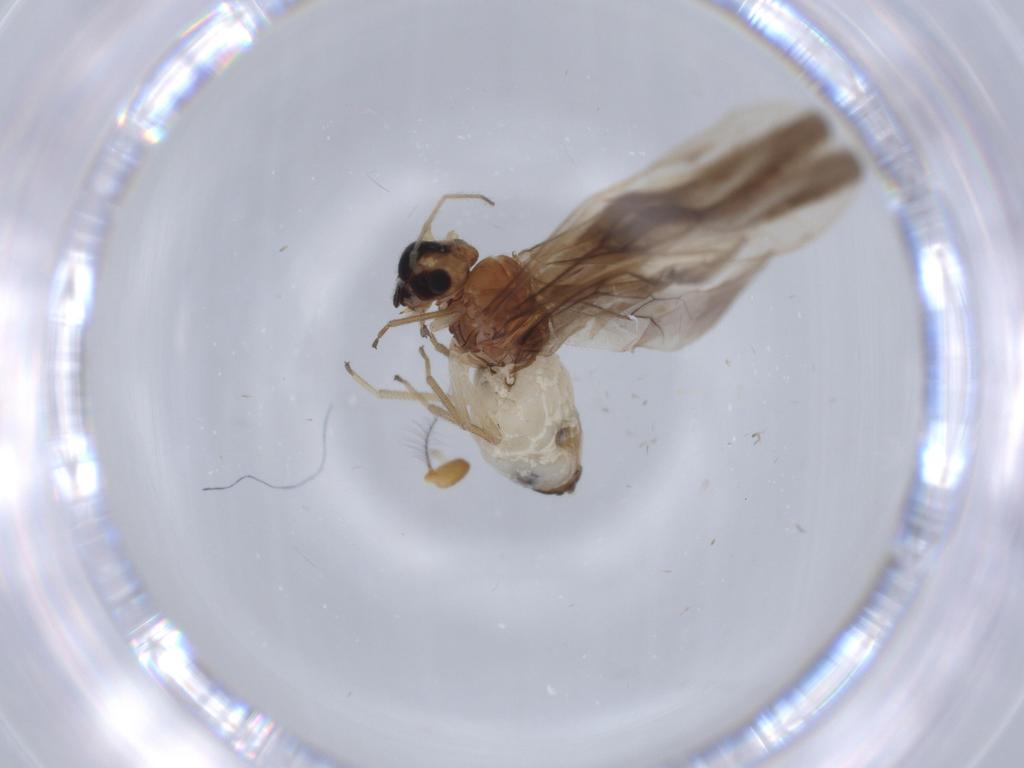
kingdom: Animalia
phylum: Arthropoda
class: Insecta
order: Psocodea
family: Caeciliusidae
